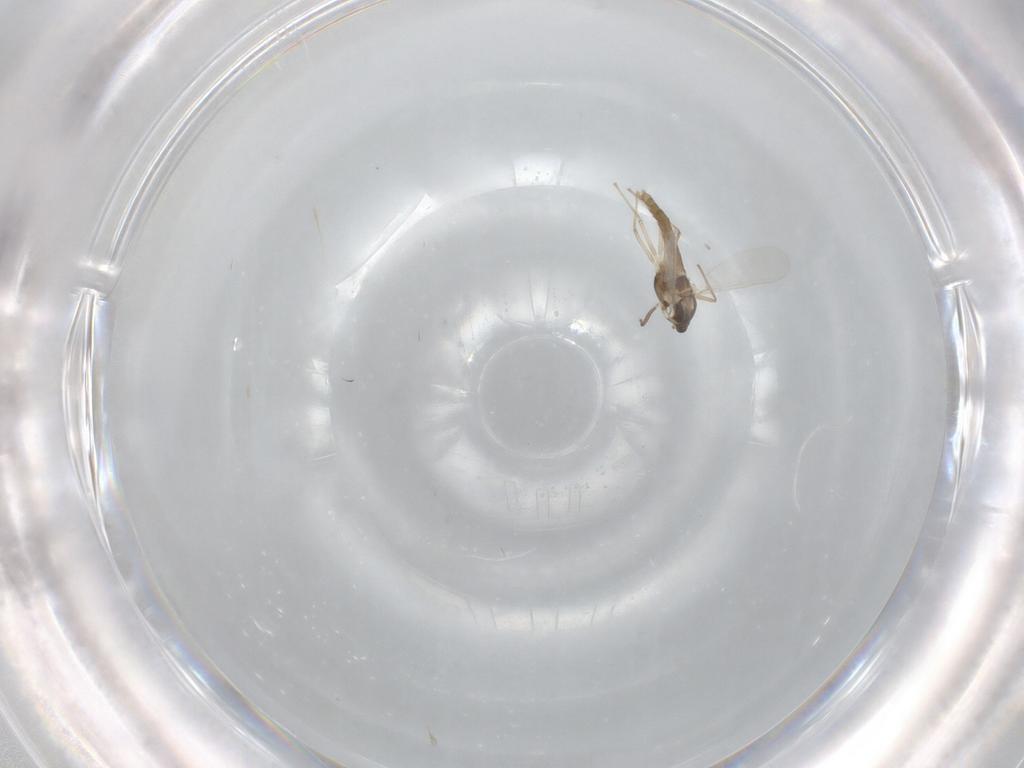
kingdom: Animalia
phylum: Arthropoda
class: Insecta
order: Diptera
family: Chironomidae
